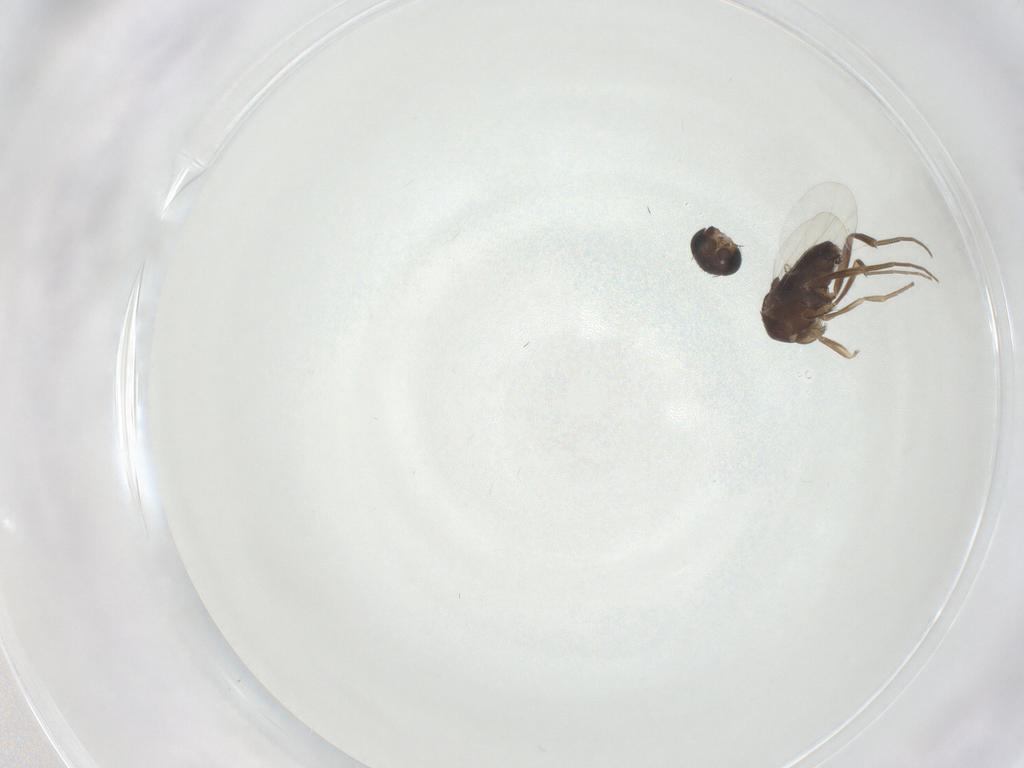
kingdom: Animalia
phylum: Arthropoda
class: Insecta
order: Diptera
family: Phoridae
